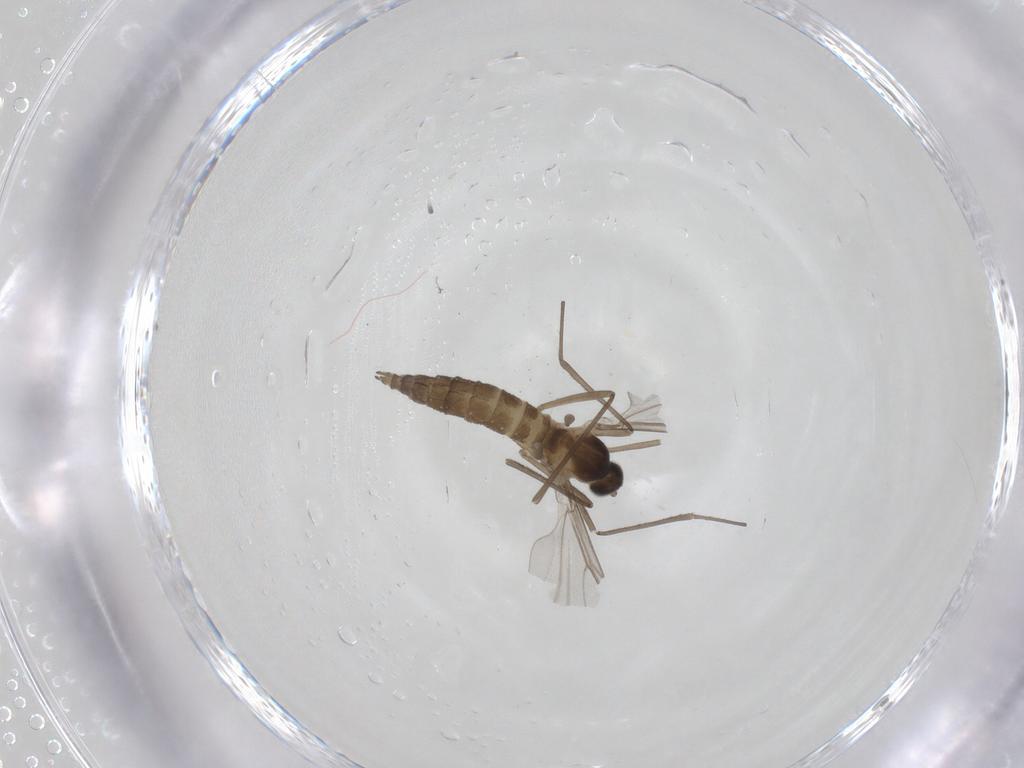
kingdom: Animalia
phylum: Arthropoda
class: Insecta
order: Diptera
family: Cecidomyiidae
